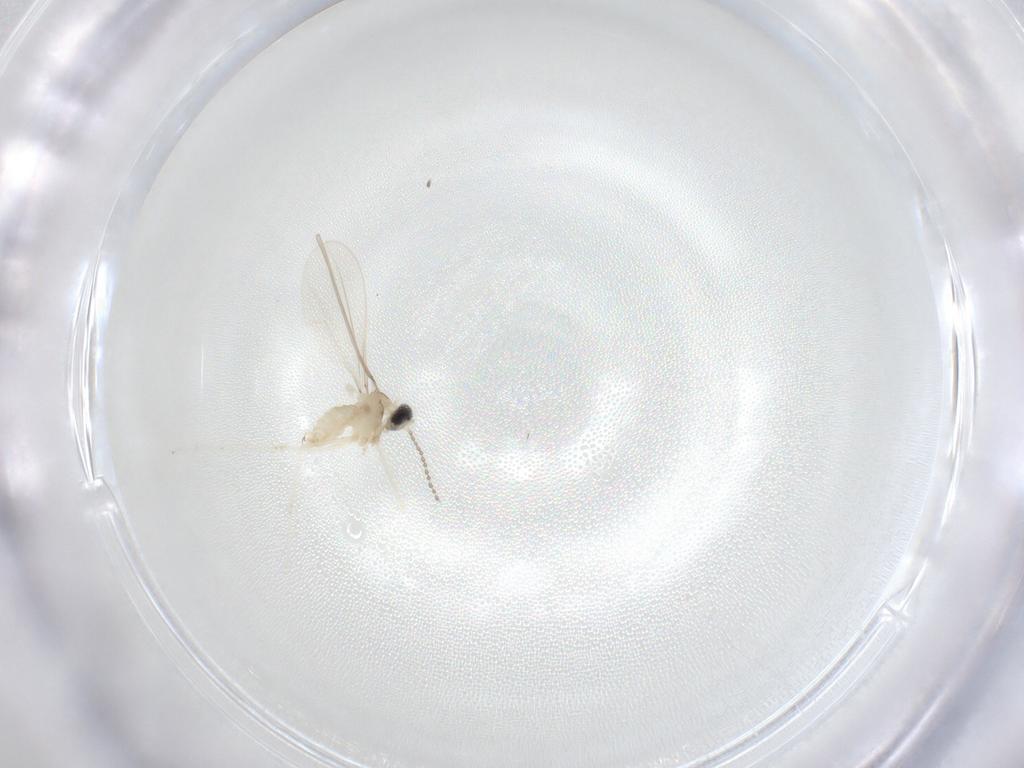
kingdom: Animalia
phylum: Arthropoda
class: Insecta
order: Diptera
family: Cecidomyiidae
